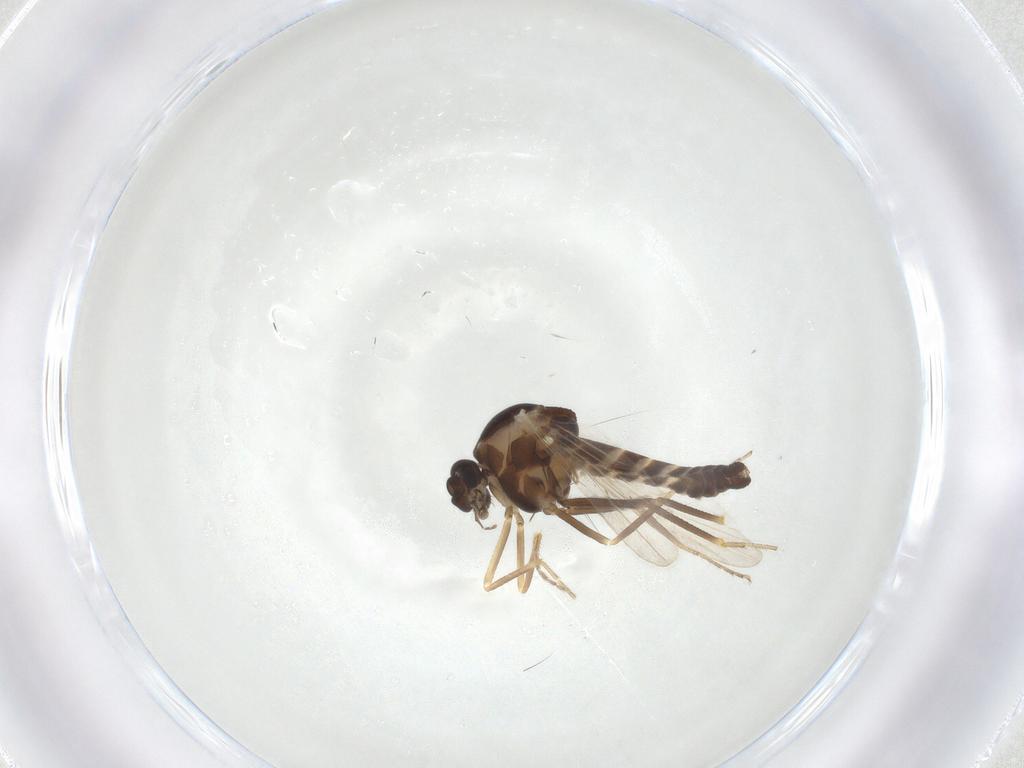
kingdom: Animalia
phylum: Arthropoda
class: Insecta
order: Diptera
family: Ceratopogonidae
